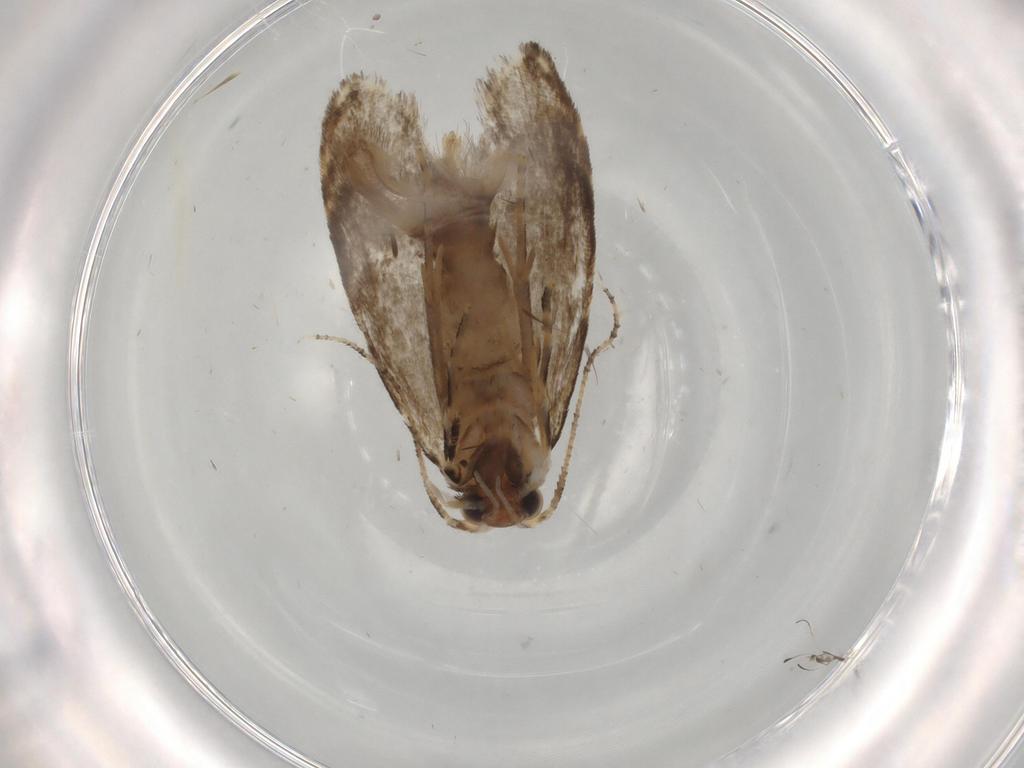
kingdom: Animalia
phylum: Arthropoda
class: Insecta
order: Lepidoptera
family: Tineidae
